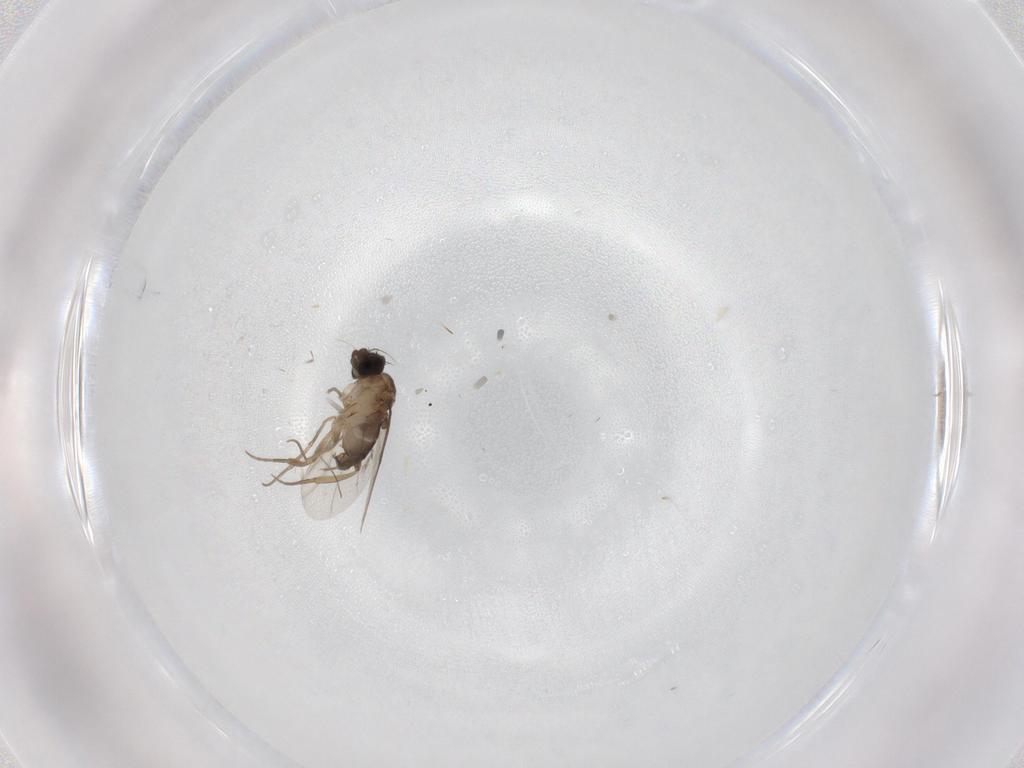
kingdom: Animalia
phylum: Arthropoda
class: Insecta
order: Diptera
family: Phoridae
